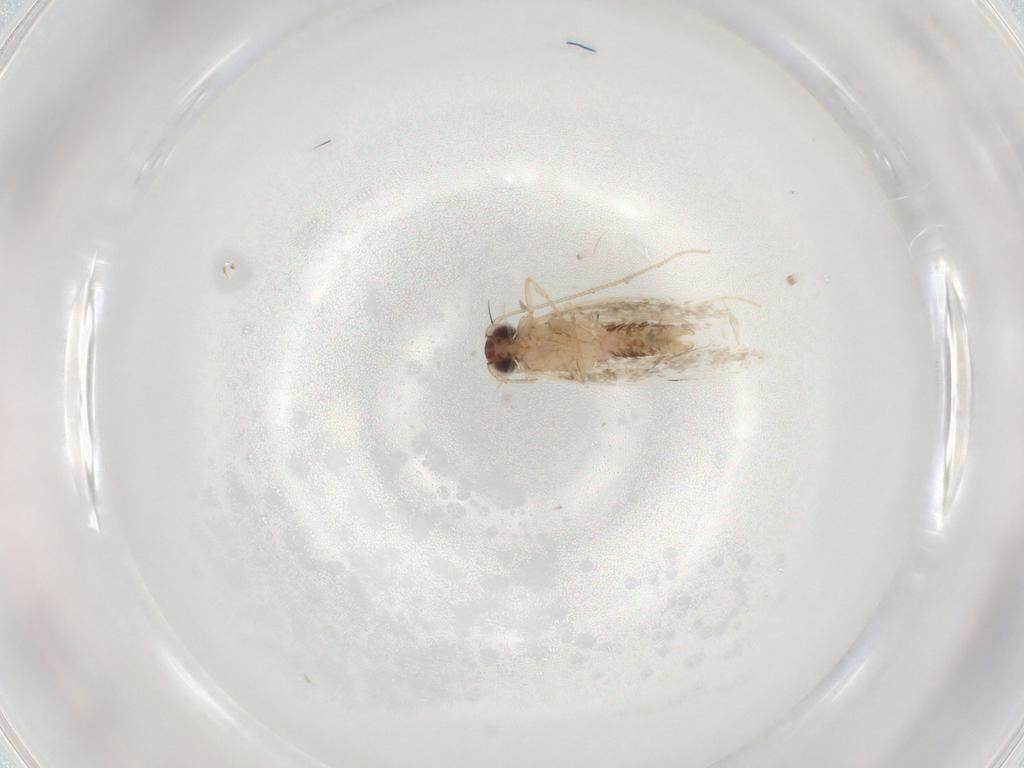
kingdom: Animalia
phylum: Arthropoda
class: Insecta
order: Lepidoptera
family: Tineidae
